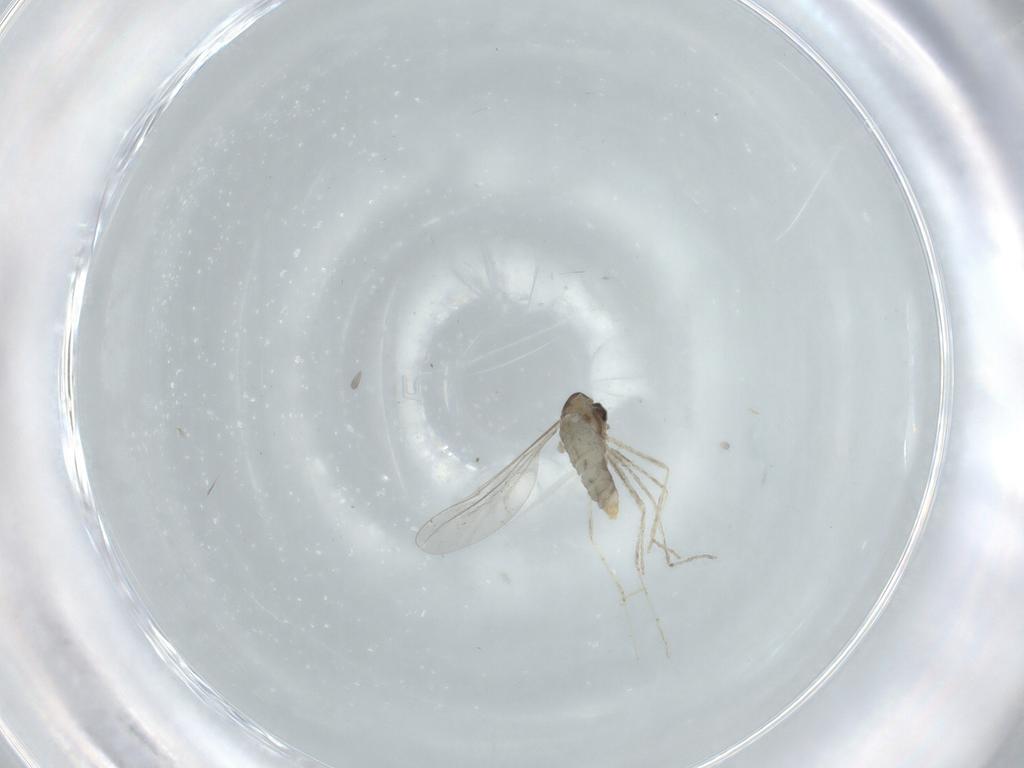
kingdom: Animalia
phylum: Arthropoda
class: Insecta
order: Diptera
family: Cecidomyiidae
